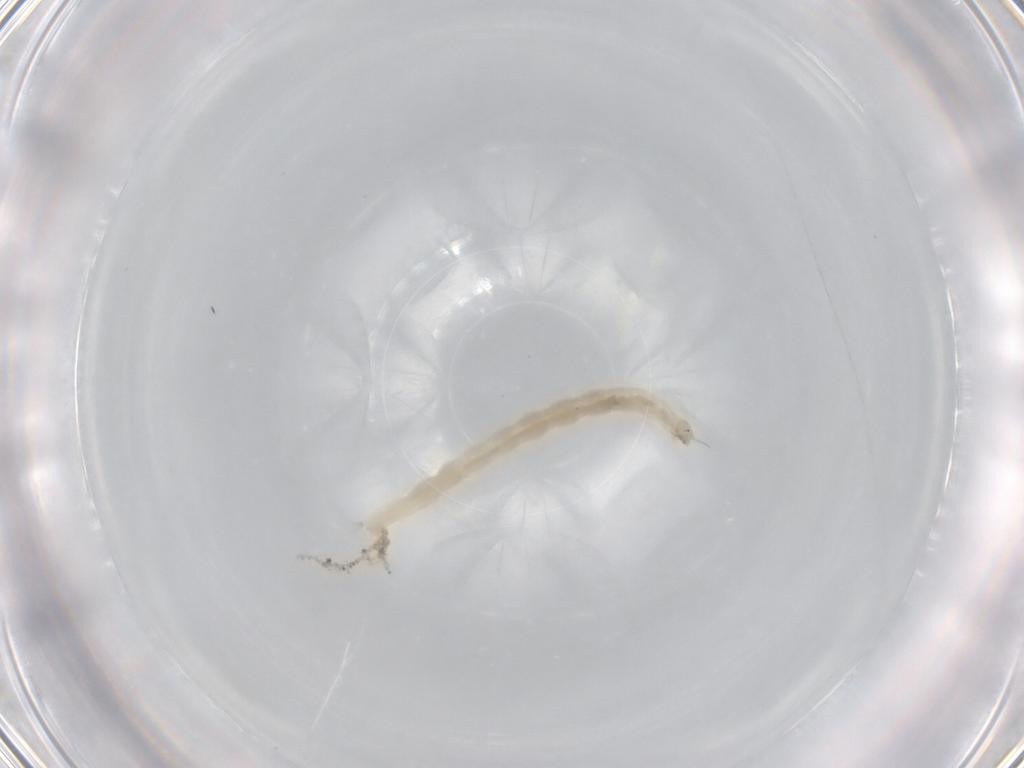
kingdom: Animalia
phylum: Arthropoda
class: Insecta
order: Diptera
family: Chironomidae
